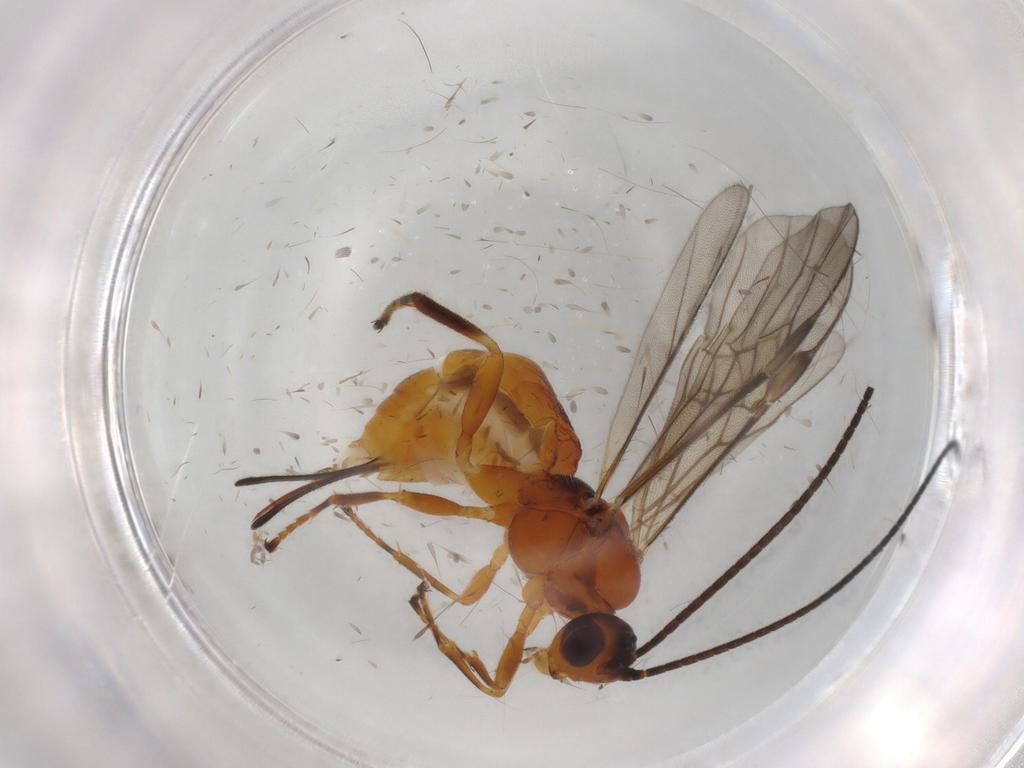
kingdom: Animalia
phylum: Arthropoda
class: Insecta
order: Hymenoptera
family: Braconidae
